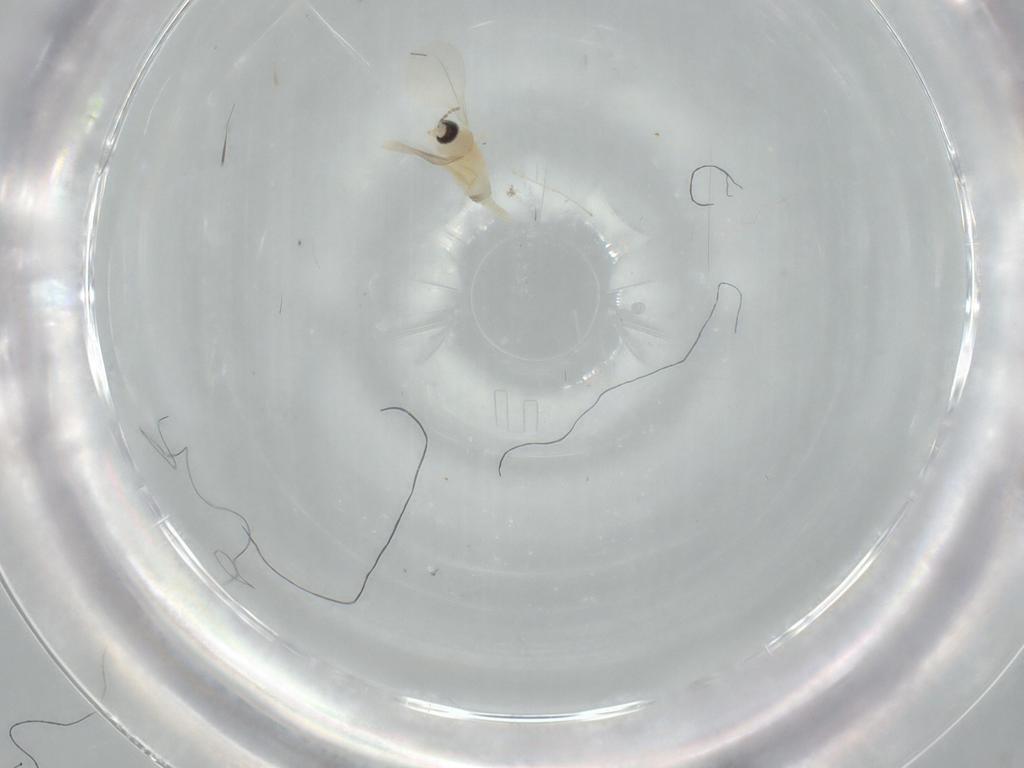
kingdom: Animalia
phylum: Arthropoda
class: Insecta
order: Diptera
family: Cecidomyiidae
